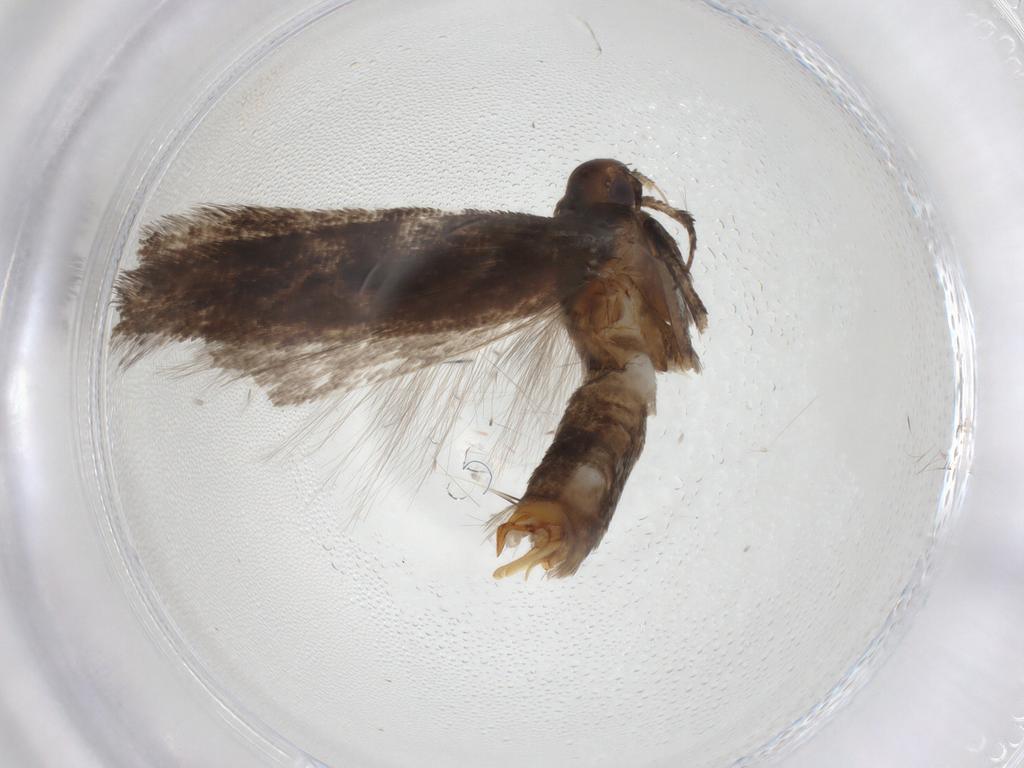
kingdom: Animalia
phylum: Arthropoda
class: Insecta
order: Lepidoptera
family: Gelechiidae
